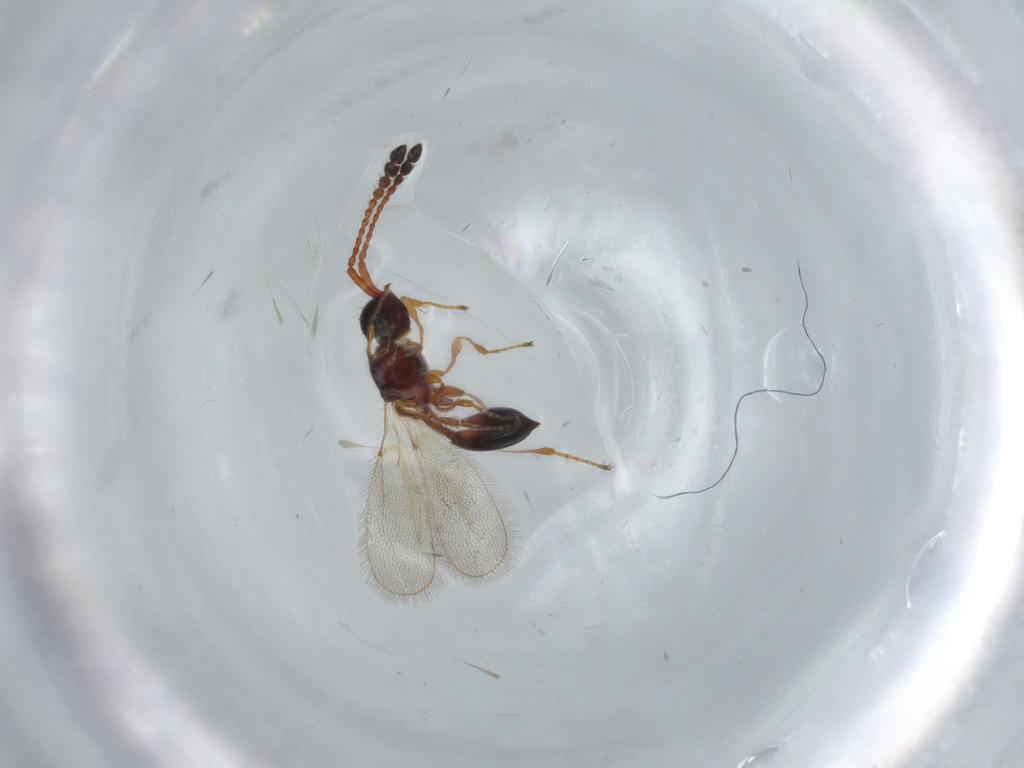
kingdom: Animalia
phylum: Arthropoda
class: Insecta
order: Hymenoptera
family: Diapriidae
